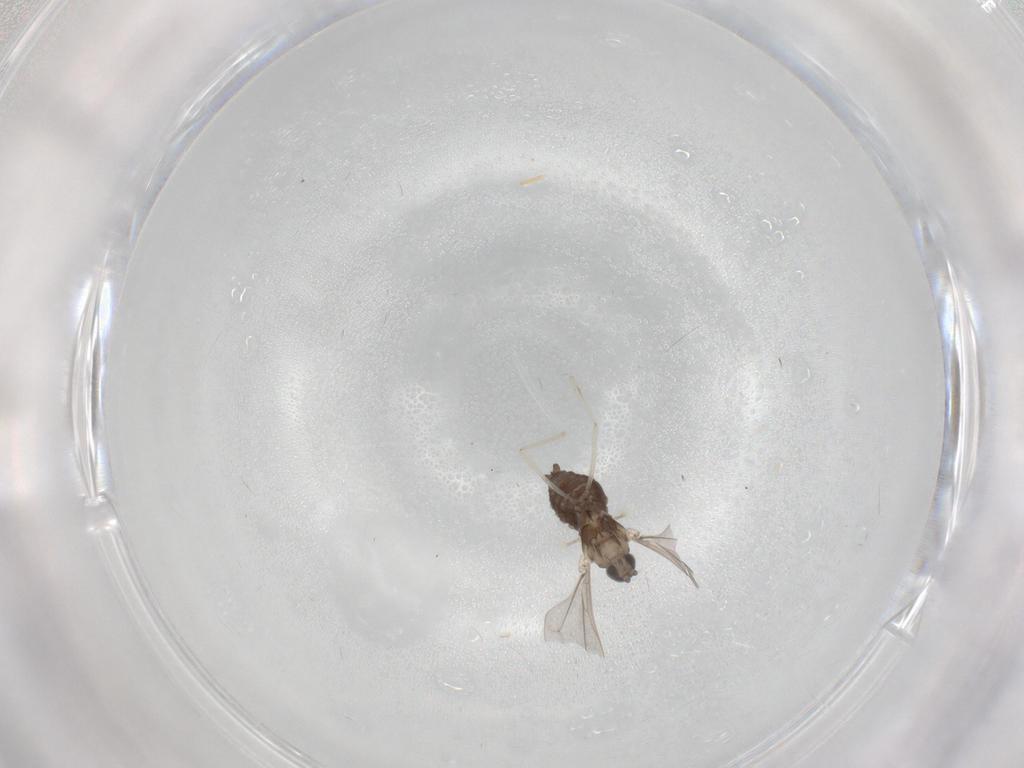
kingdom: Animalia
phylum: Arthropoda
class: Insecta
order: Diptera
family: Cecidomyiidae
